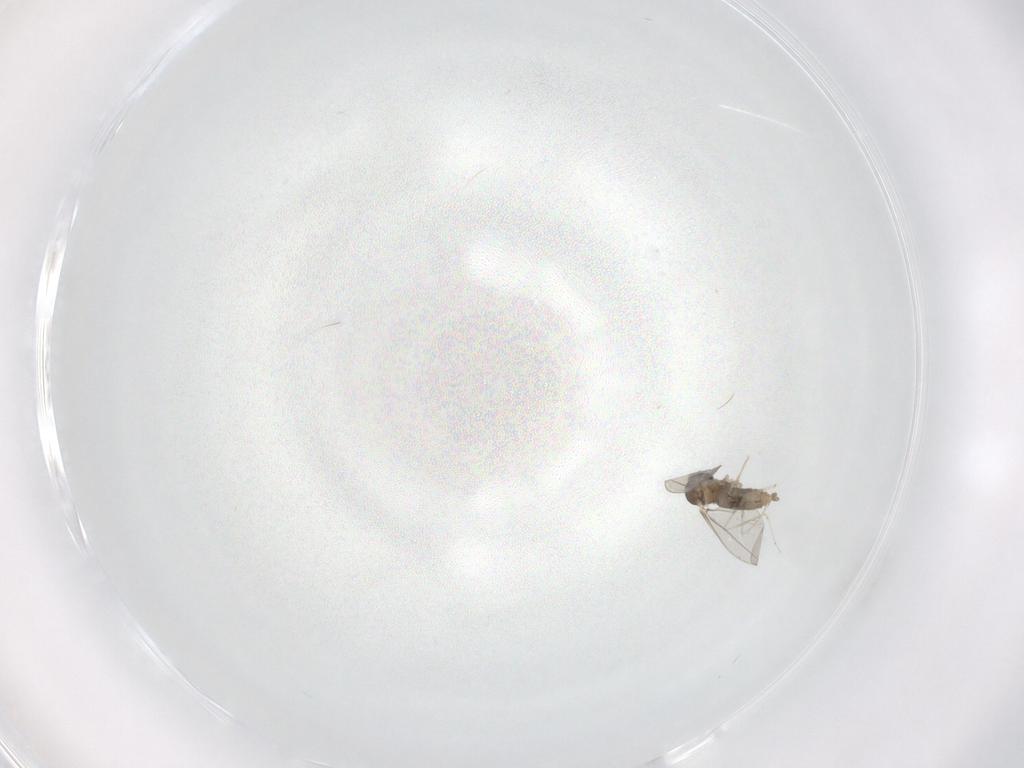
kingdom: Animalia
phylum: Arthropoda
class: Insecta
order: Diptera
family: Cecidomyiidae
